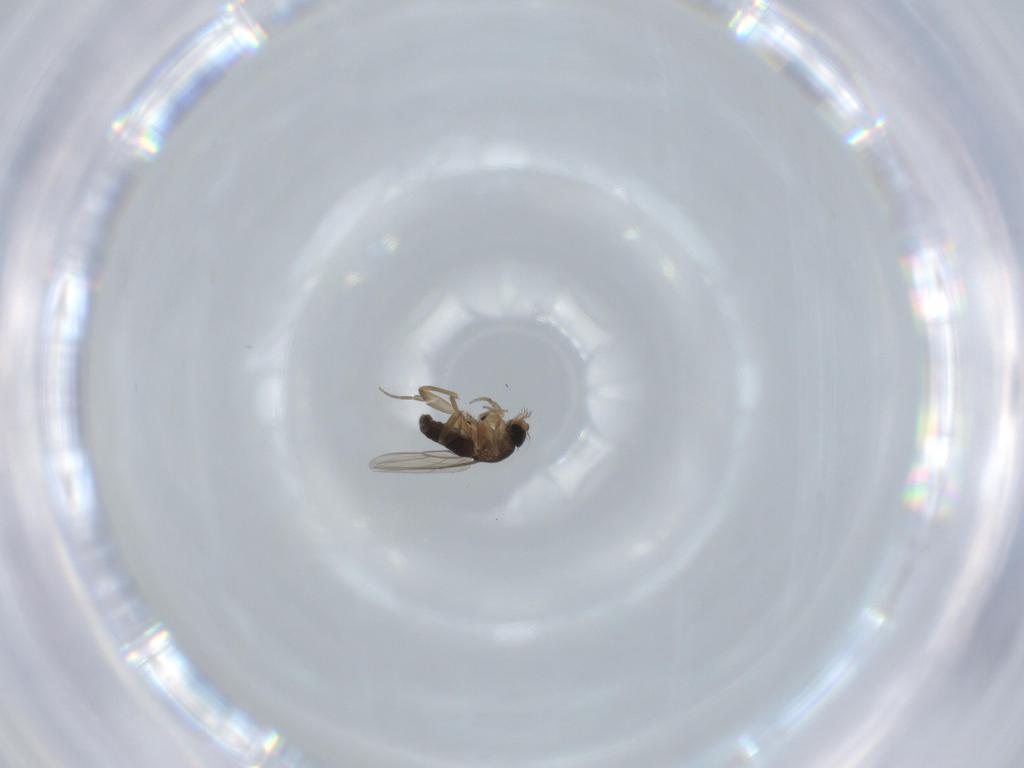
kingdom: Animalia
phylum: Arthropoda
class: Insecta
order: Diptera
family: Phoridae
